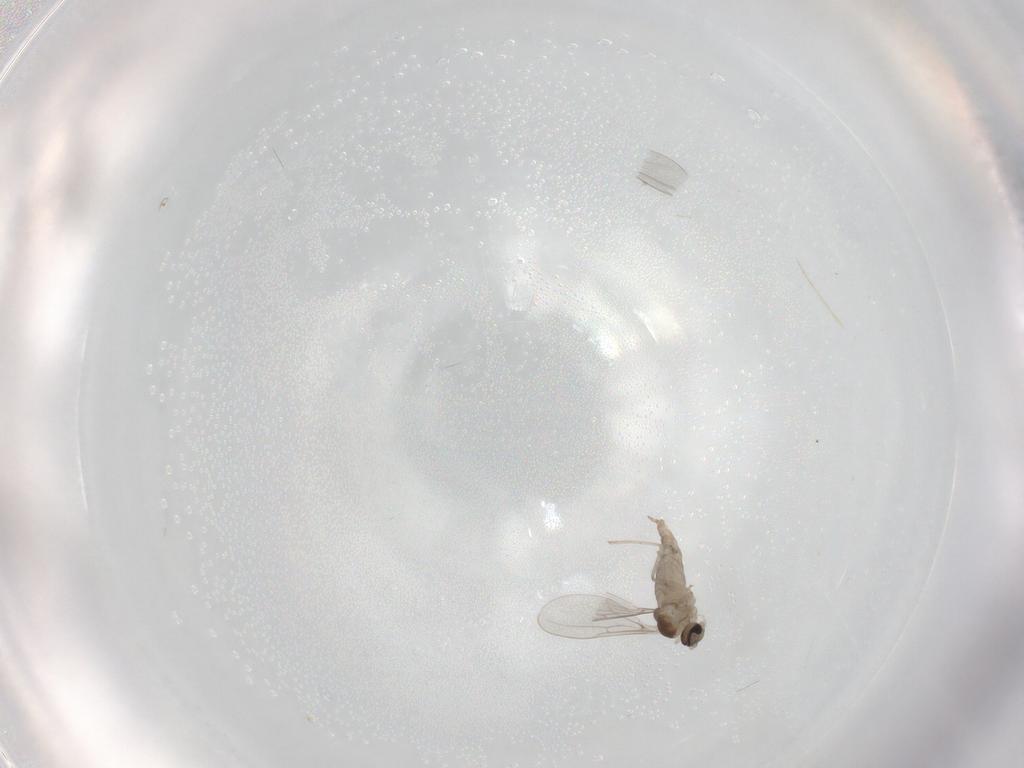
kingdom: Animalia
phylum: Arthropoda
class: Insecta
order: Diptera
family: Cecidomyiidae
